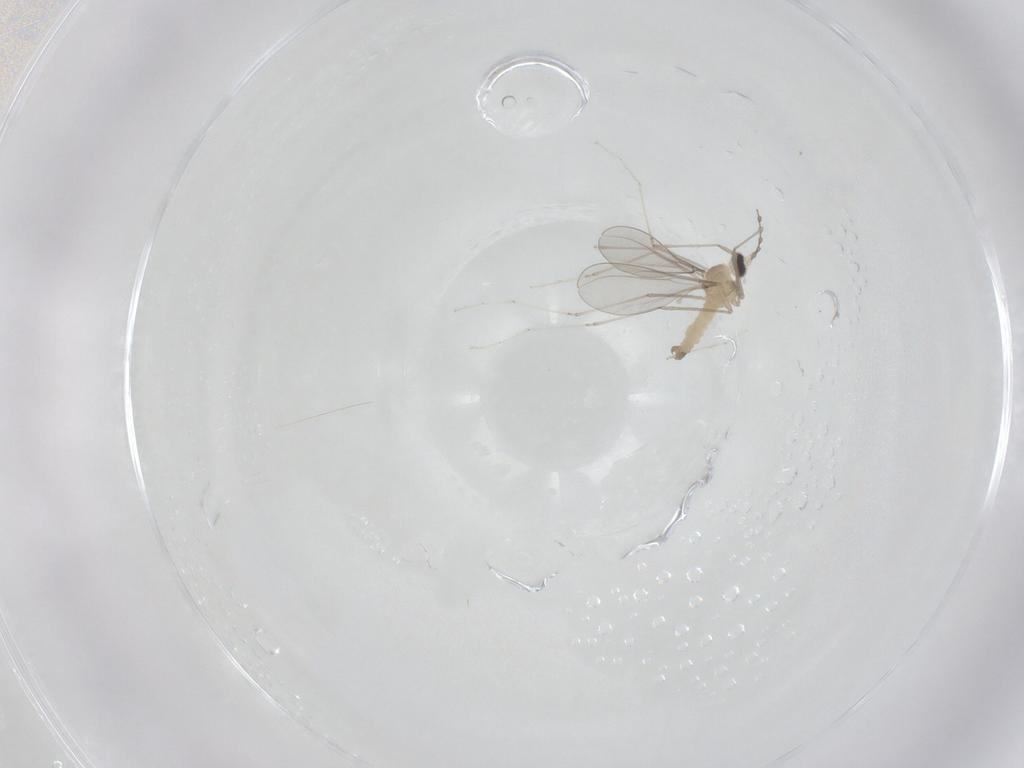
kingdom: Animalia
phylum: Arthropoda
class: Insecta
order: Diptera
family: Cecidomyiidae
